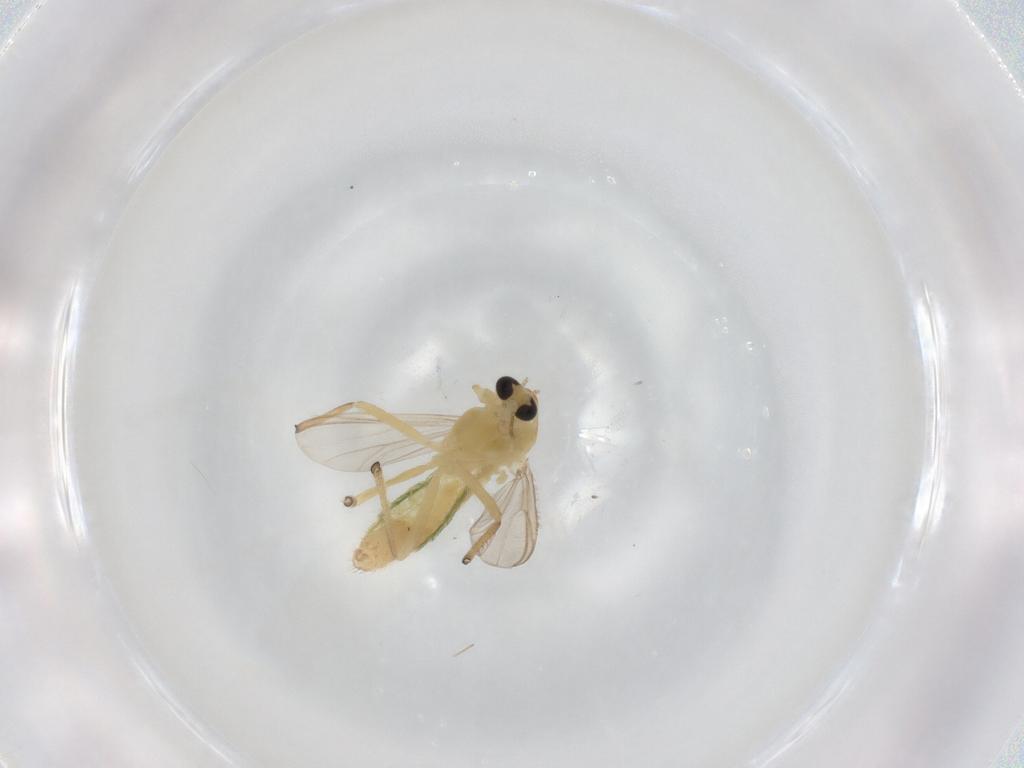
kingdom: Animalia
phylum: Arthropoda
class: Insecta
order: Diptera
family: Chironomidae
